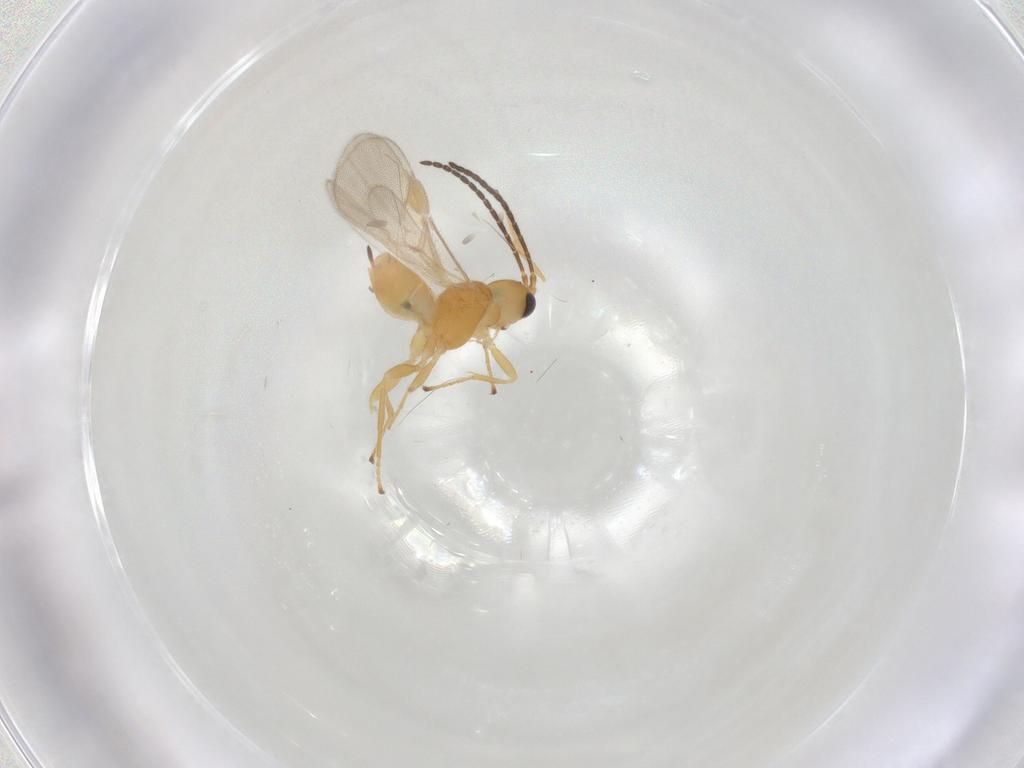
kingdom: Animalia
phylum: Arthropoda
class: Insecta
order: Hymenoptera
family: Braconidae
